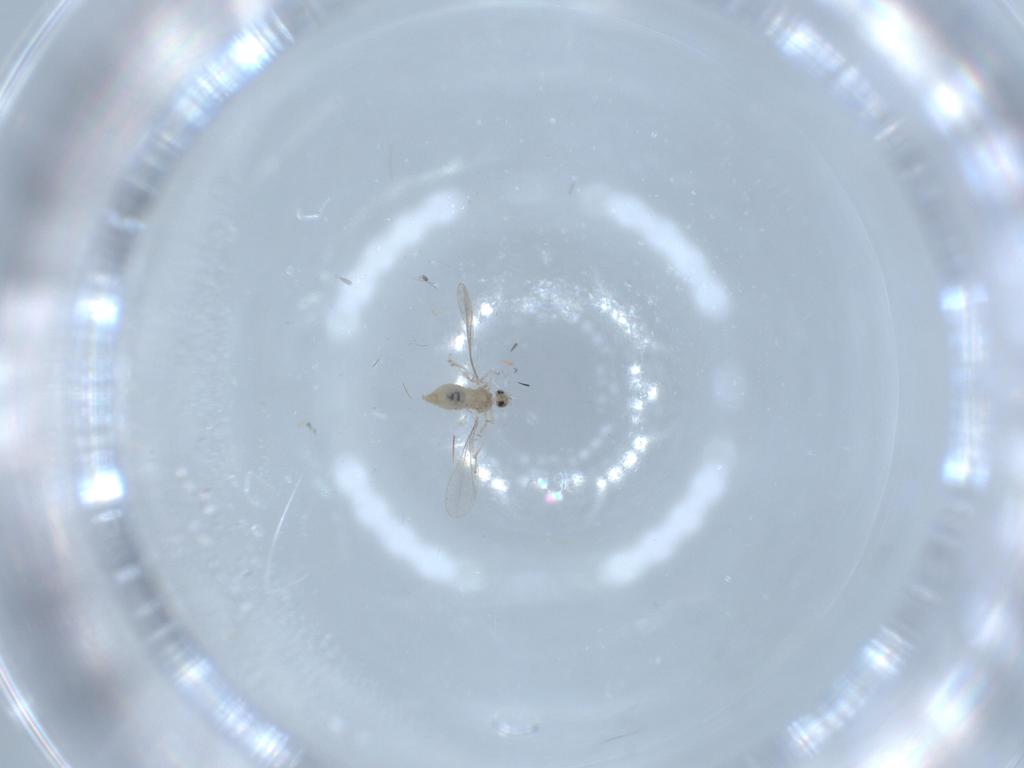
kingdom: Animalia
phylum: Arthropoda
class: Insecta
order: Diptera
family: Cecidomyiidae
